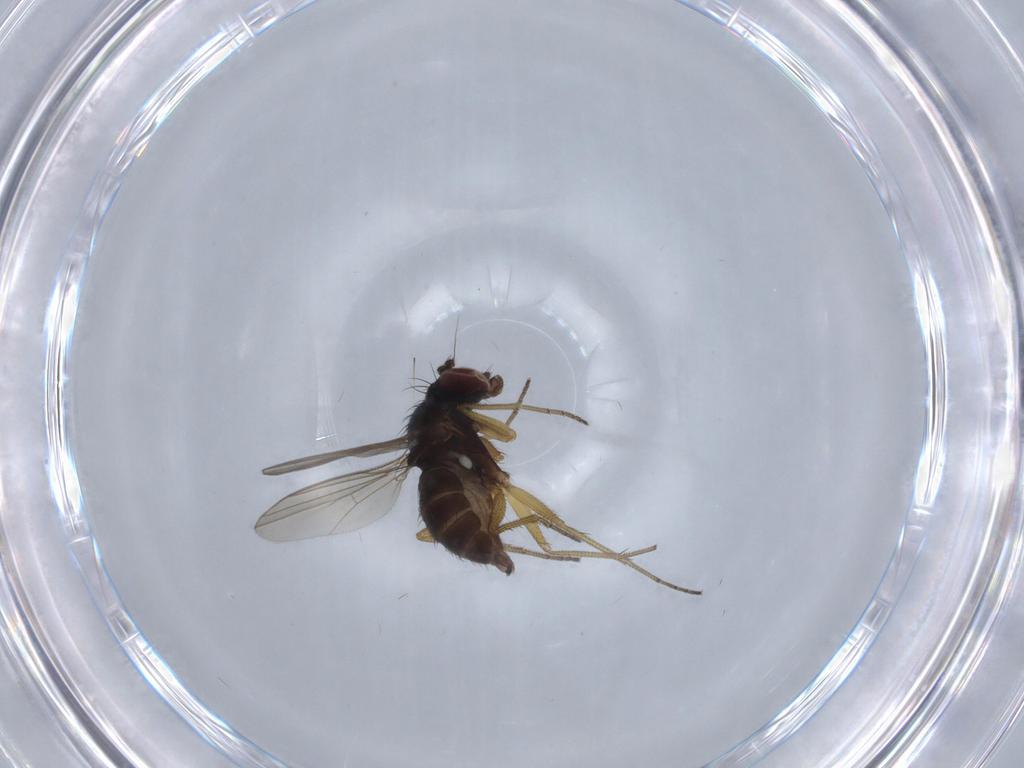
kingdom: Animalia
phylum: Arthropoda
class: Insecta
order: Diptera
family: Dolichopodidae
